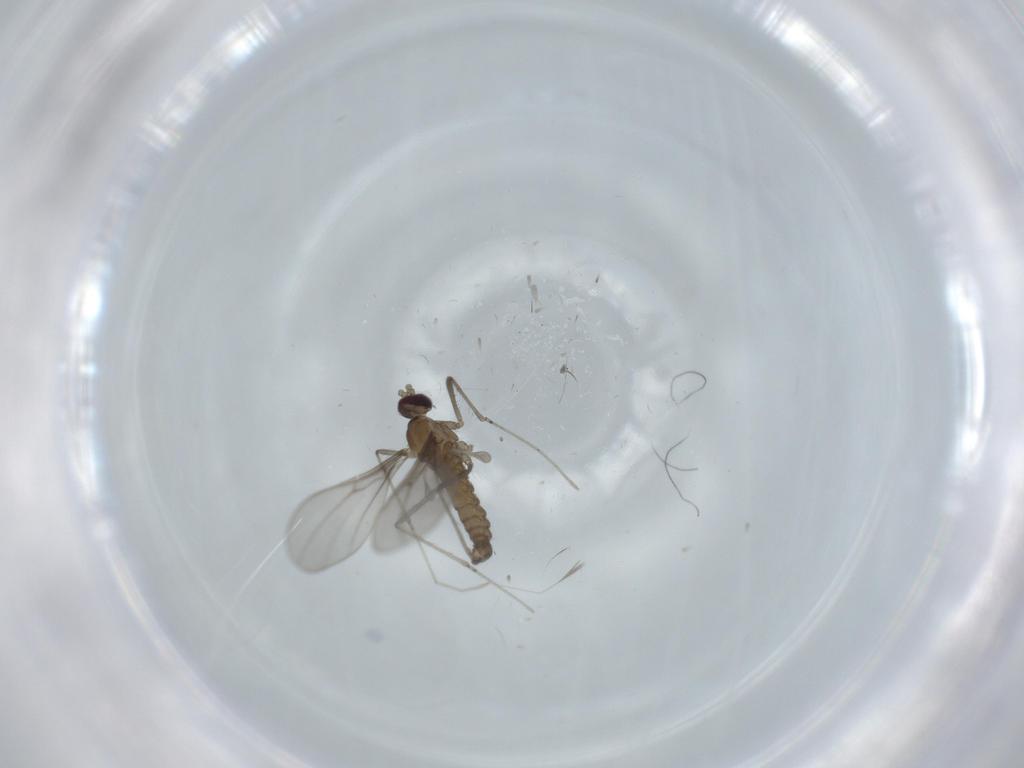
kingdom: Animalia
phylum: Arthropoda
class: Insecta
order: Diptera
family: Cecidomyiidae
